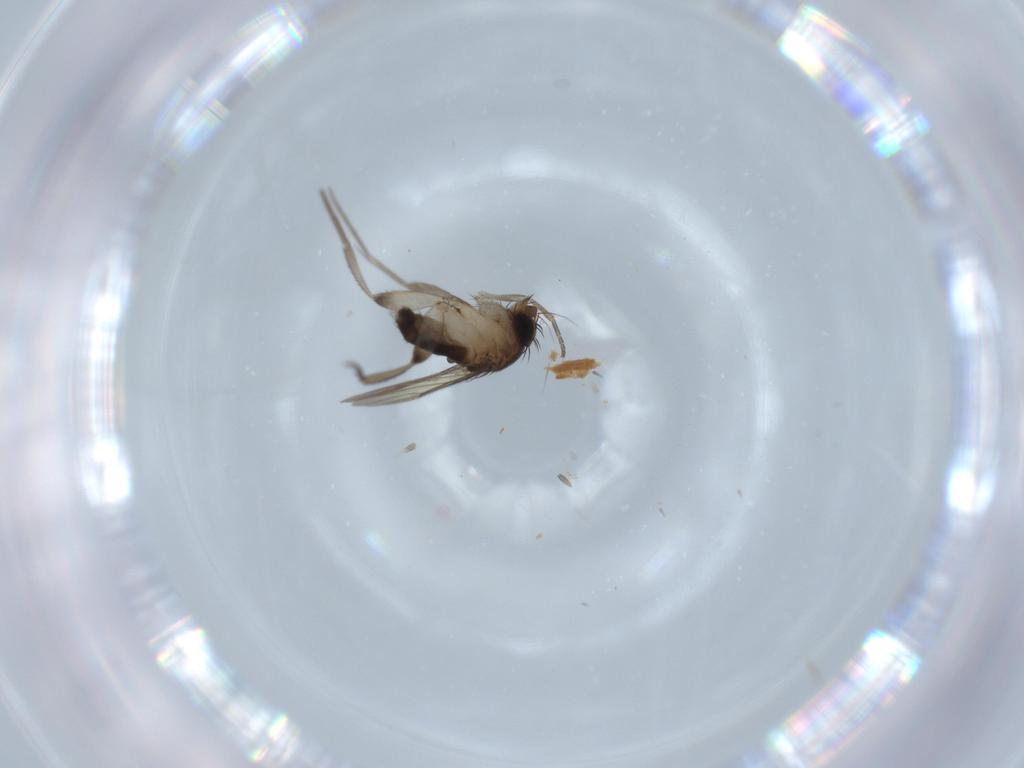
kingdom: Animalia
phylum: Arthropoda
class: Insecta
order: Diptera
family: Phoridae
